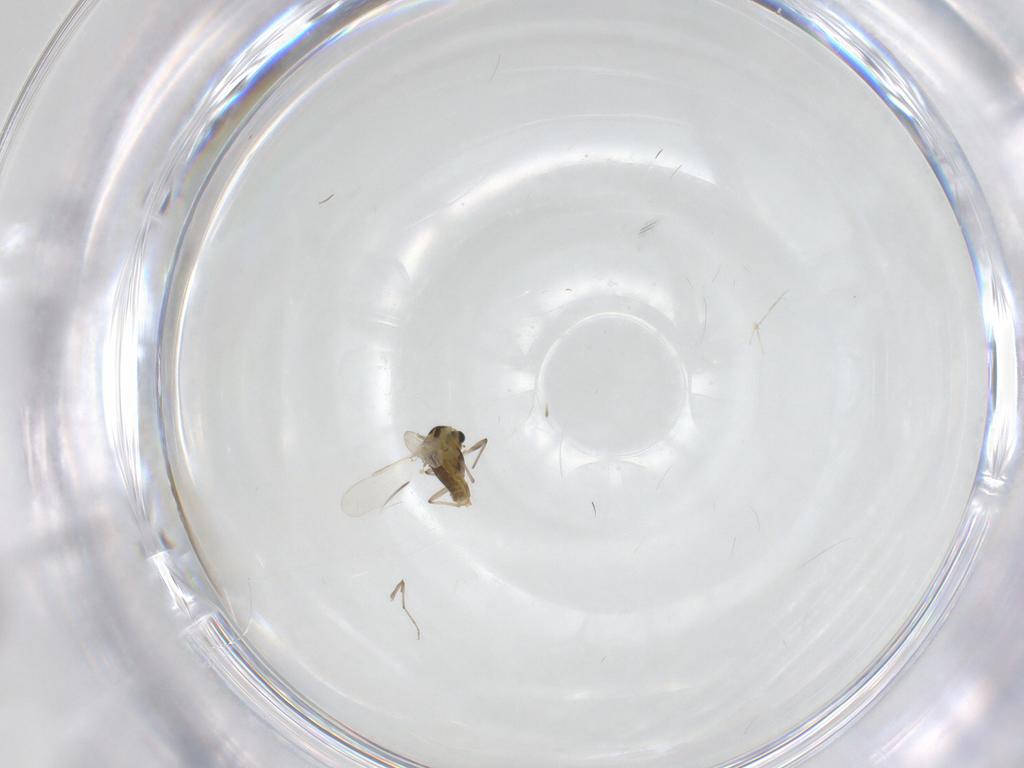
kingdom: Animalia
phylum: Arthropoda
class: Insecta
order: Diptera
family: Chironomidae
